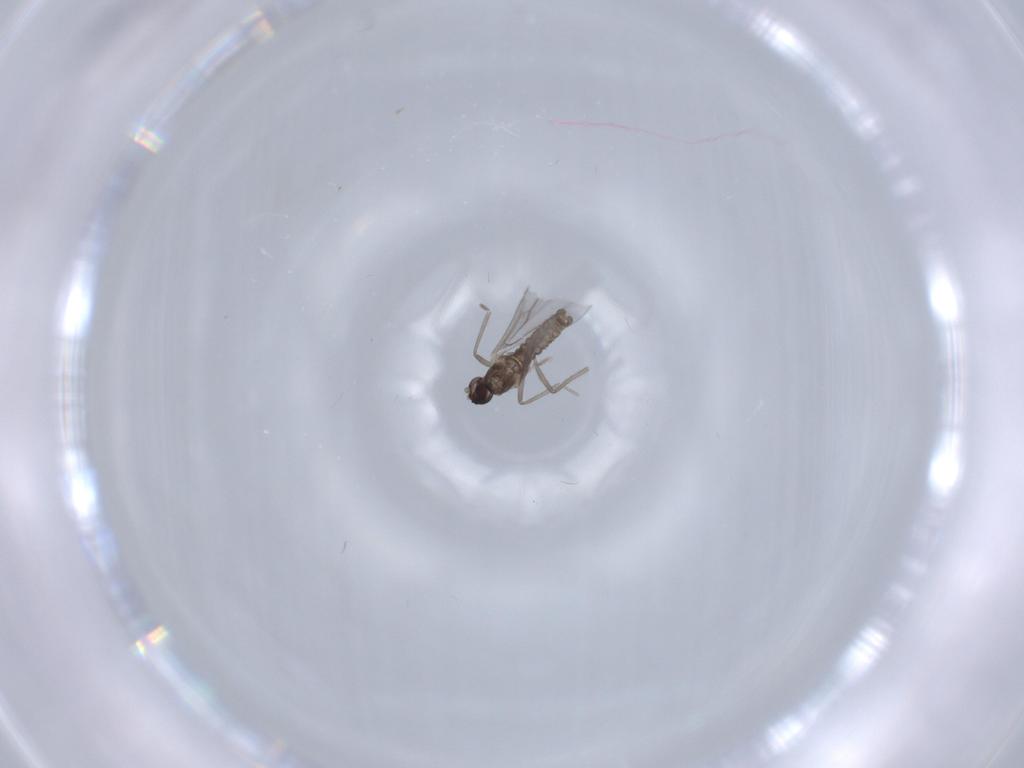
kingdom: Animalia
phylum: Arthropoda
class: Insecta
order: Diptera
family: Cecidomyiidae
